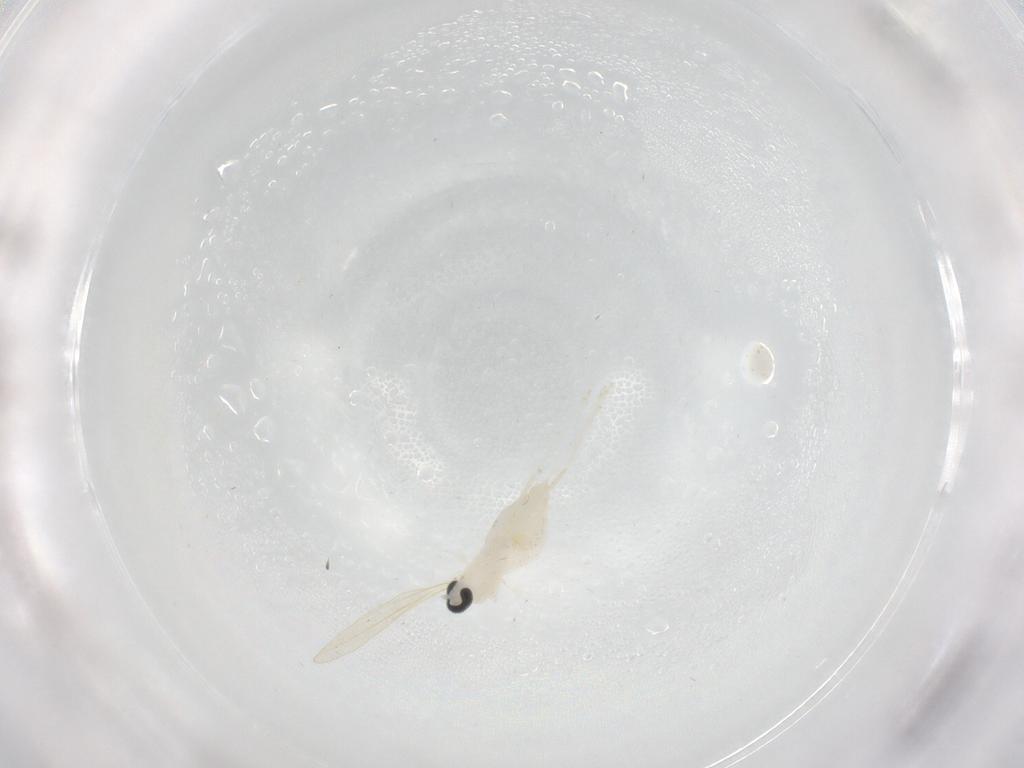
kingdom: Animalia
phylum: Arthropoda
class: Insecta
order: Diptera
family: Cecidomyiidae
